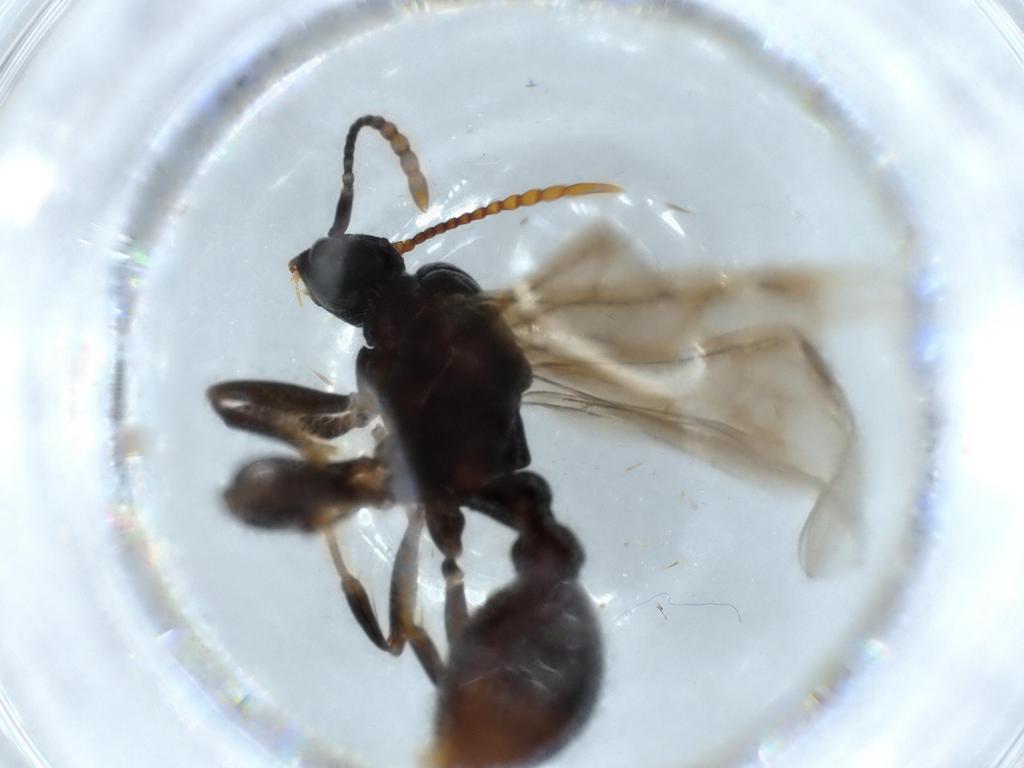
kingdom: Animalia
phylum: Arthropoda
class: Insecta
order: Hymenoptera
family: Formicidae
